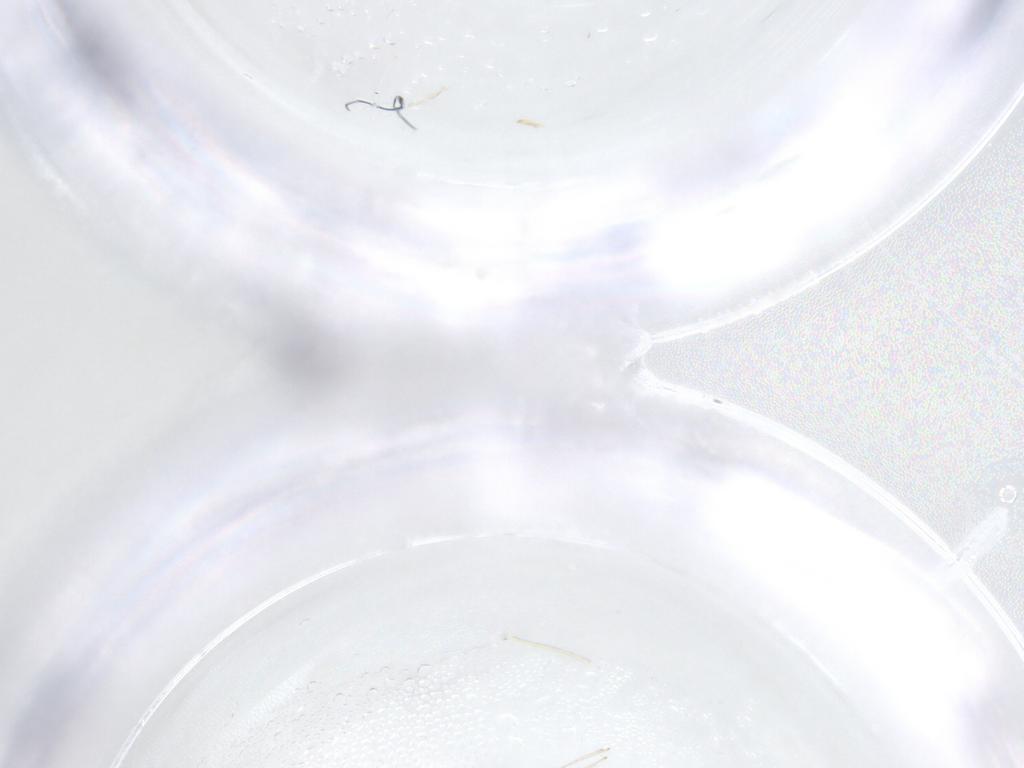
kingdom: Animalia
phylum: Arthropoda
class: Insecta
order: Diptera
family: Cecidomyiidae
